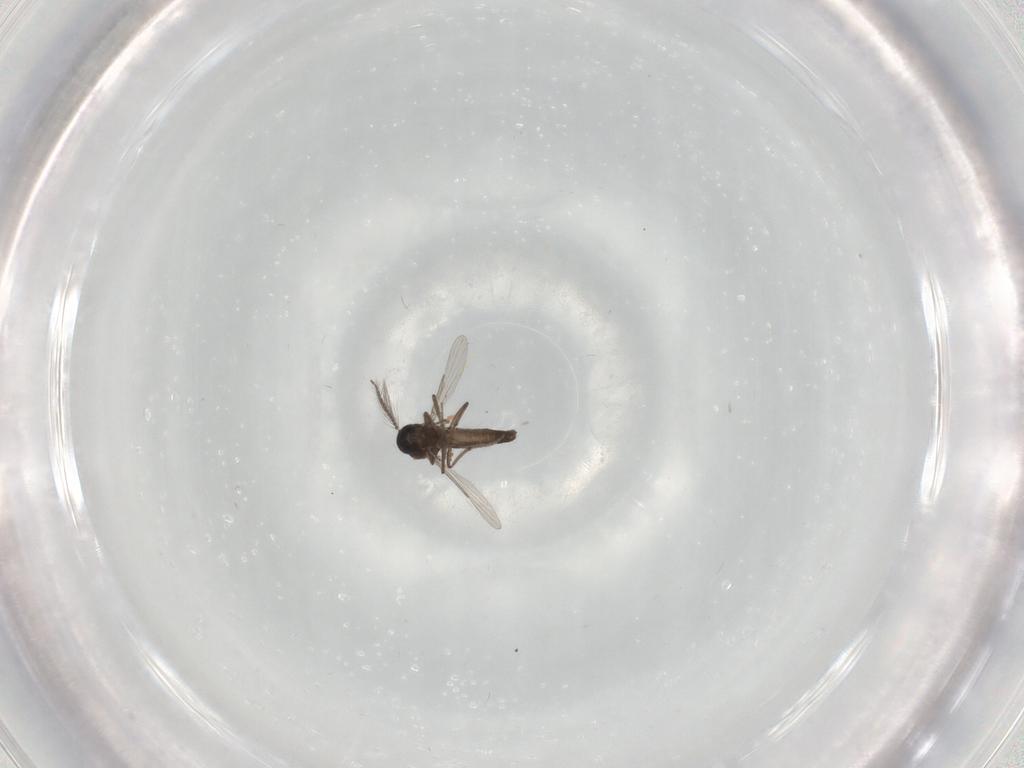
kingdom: Animalia
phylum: Arthropoda
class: Insecta
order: Diptera
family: Ceratopogonidae
